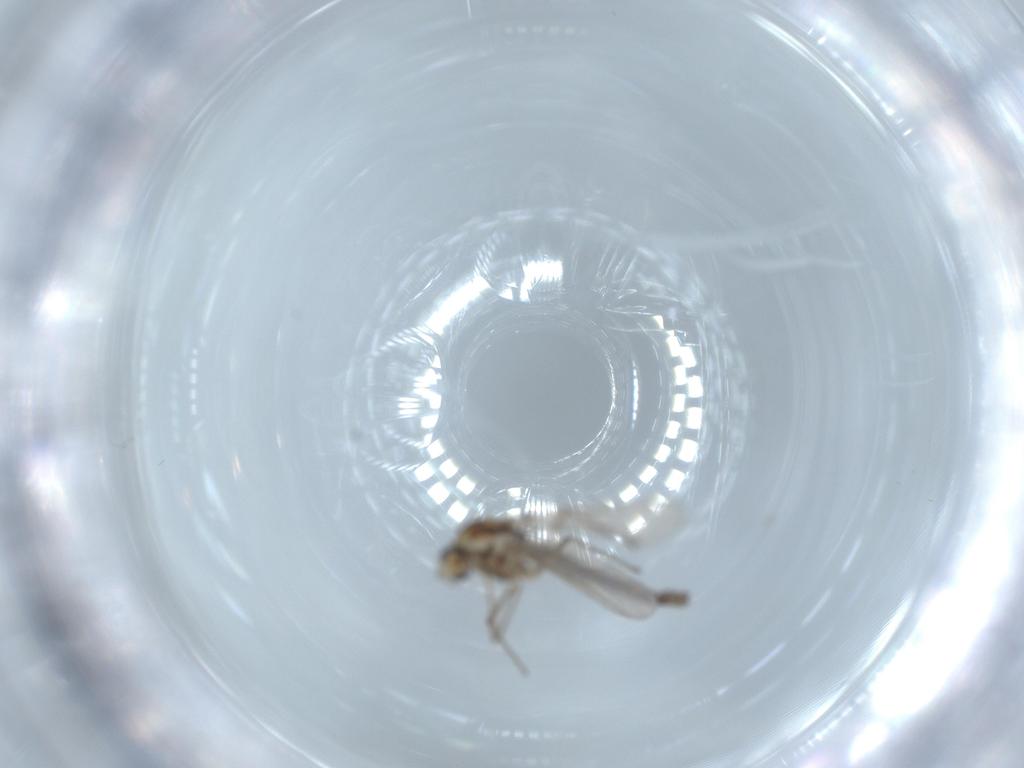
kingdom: Animalia
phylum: Arthropoda
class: Insecta
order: Diptera
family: Chironomidae
